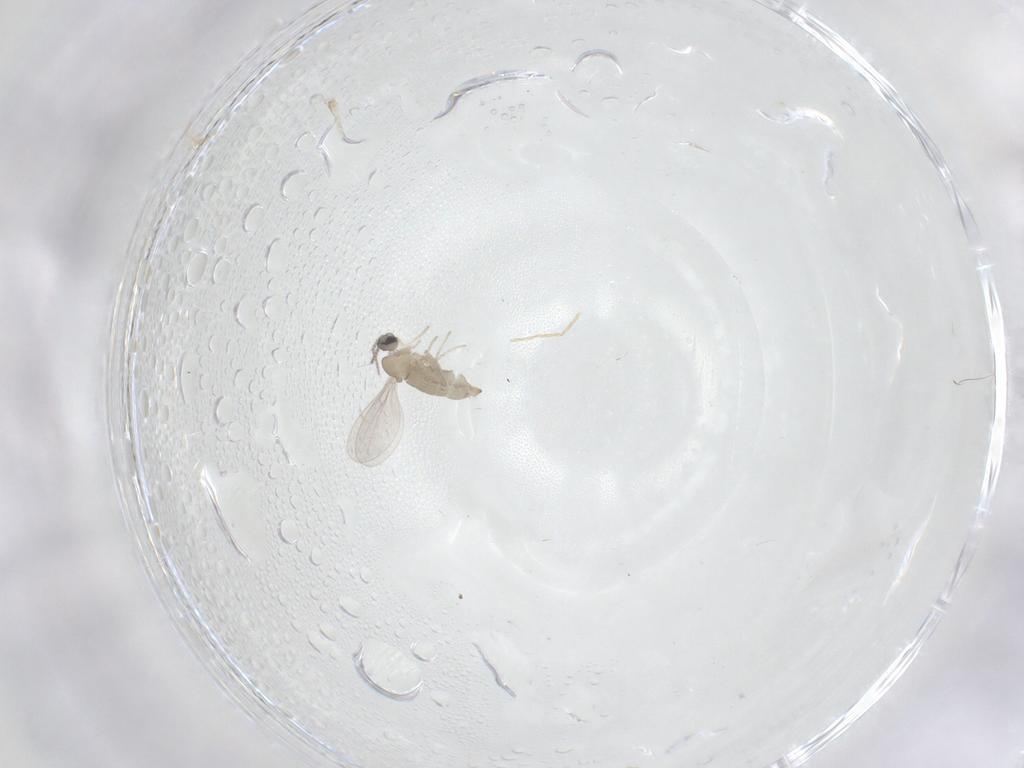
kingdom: Animalia
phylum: Arthropoda
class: Insecta
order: Diptera
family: Cecidomyiidae
